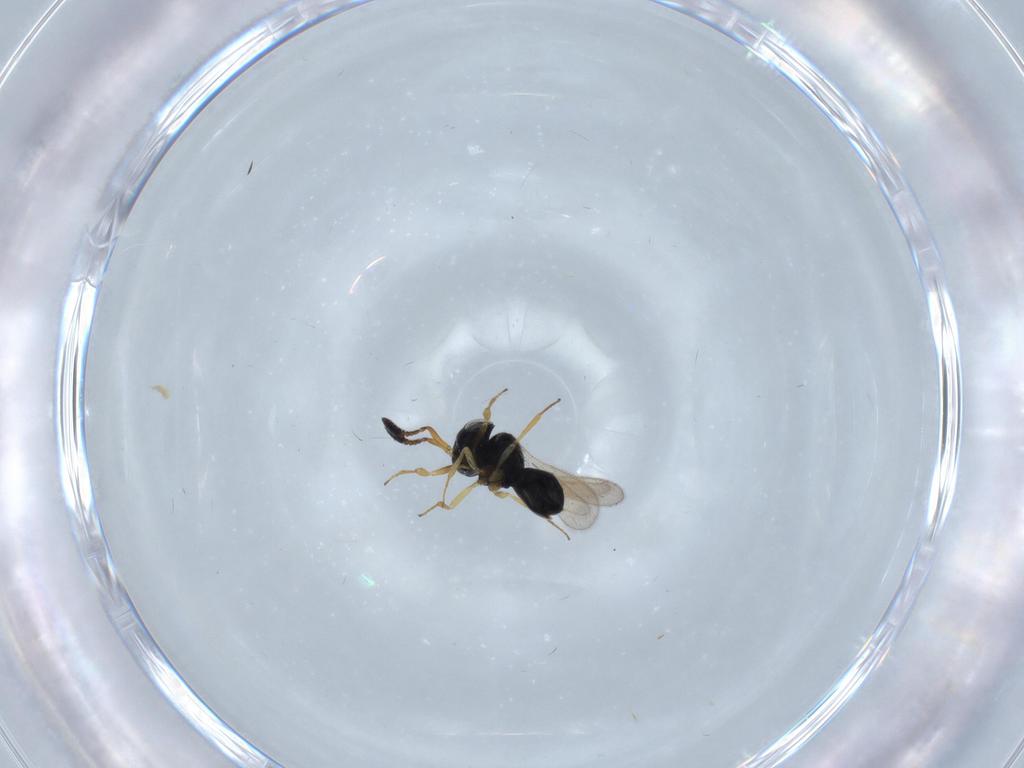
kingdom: Animalia
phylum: Arthropoda
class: Insecta
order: Hymenoptera
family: Scelionidae
